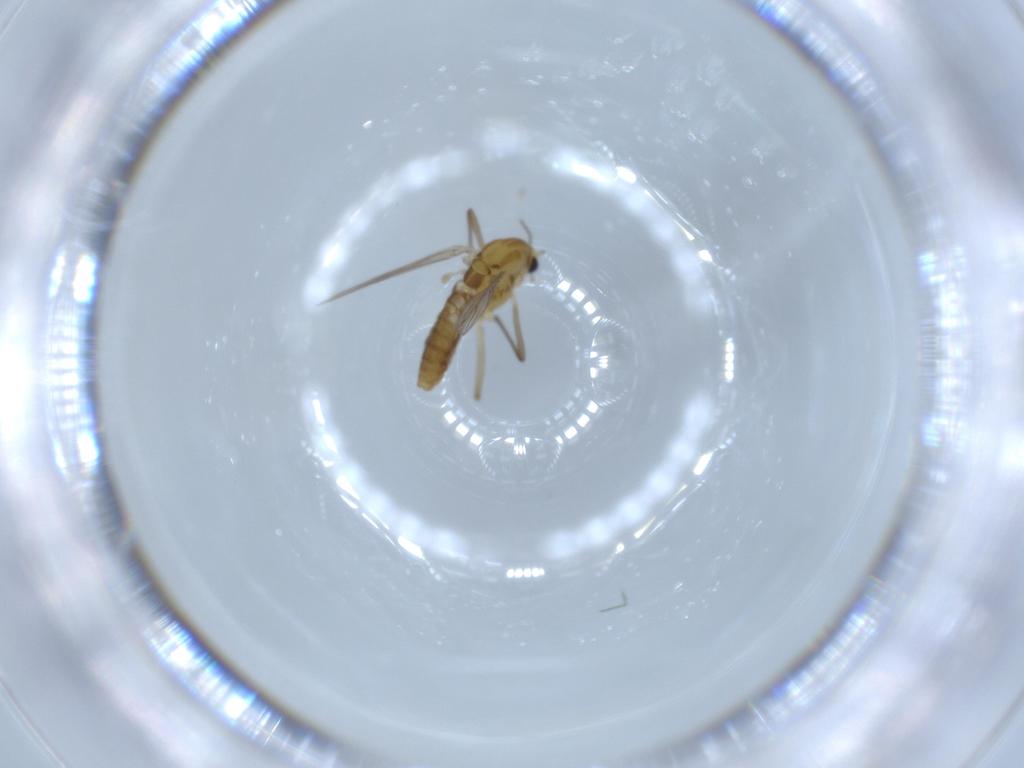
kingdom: Animalia
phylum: Arthropoda
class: Insecta
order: Diptera
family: Chironomidae
